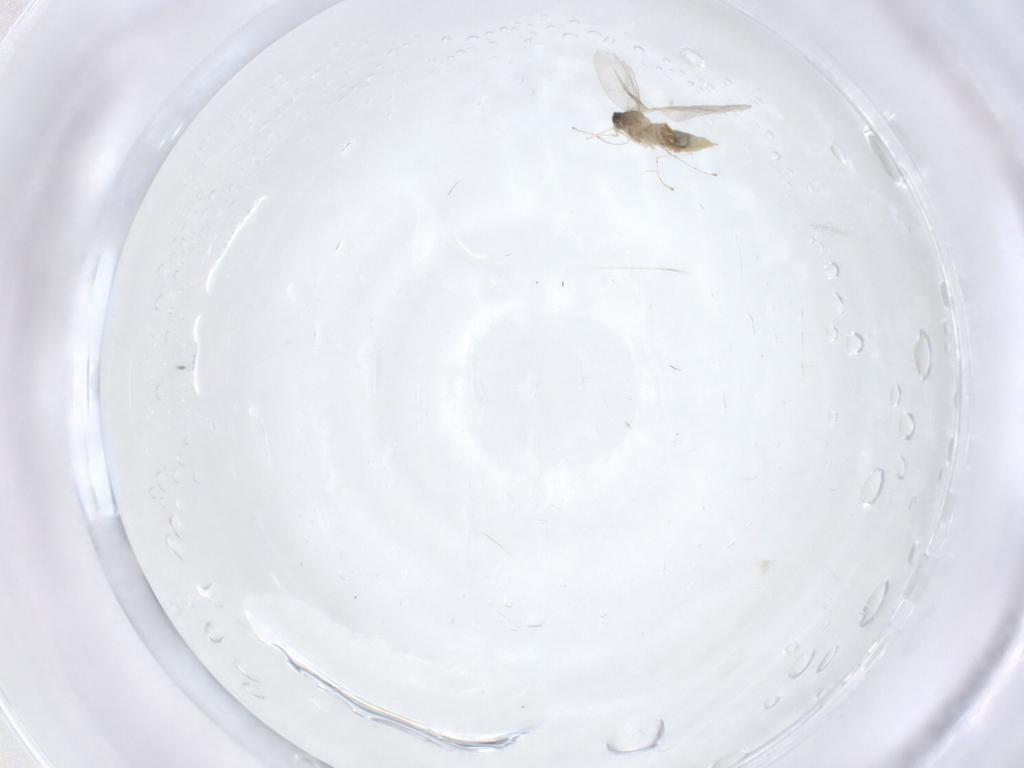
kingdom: Animalia
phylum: Arthropoda
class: Insecta
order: Diptera
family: Cecidomyiidae
